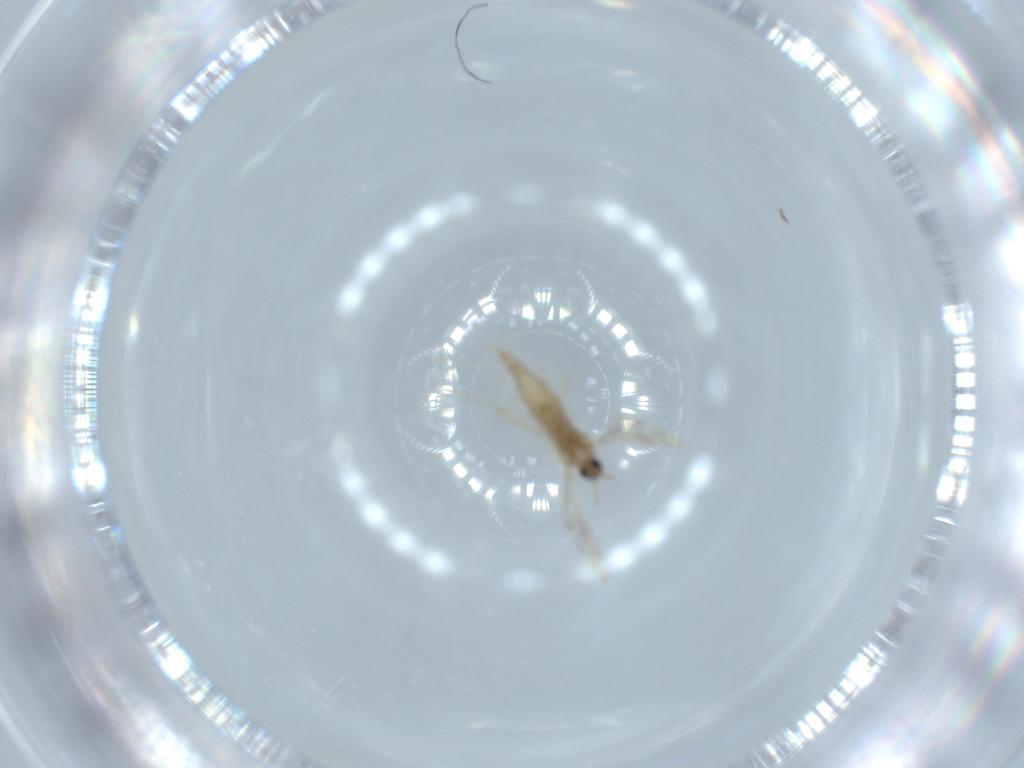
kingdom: Animalia
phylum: Arthropoda
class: Insecta
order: Diptera
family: Cecidomyiidae
